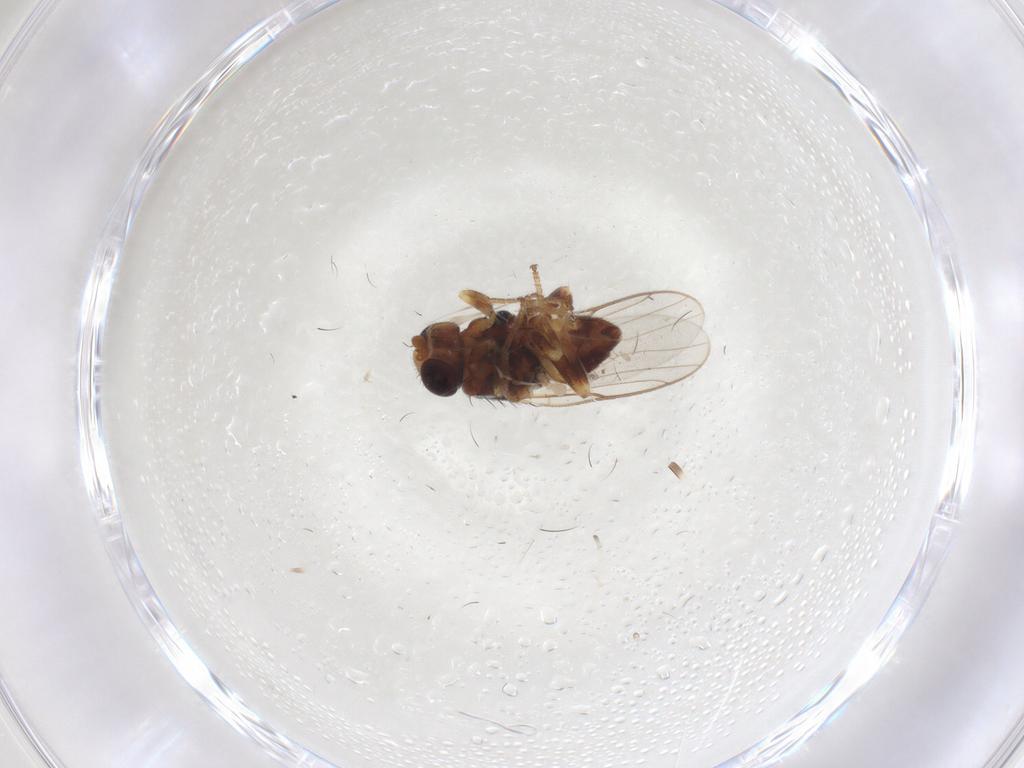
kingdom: Animalia
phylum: Arthropoda
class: Insecta
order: Diptera
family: Chloropidae
